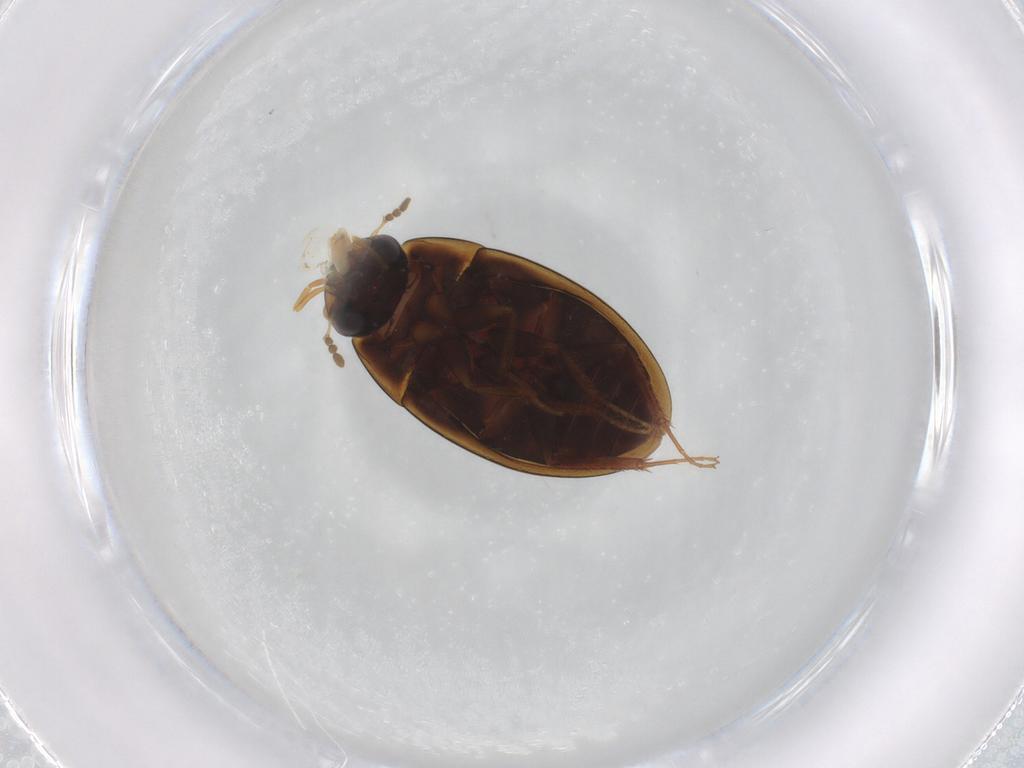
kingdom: Animalia
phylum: Arthropoda
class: Insecta
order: Coleoptera
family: Hydrophilidae
